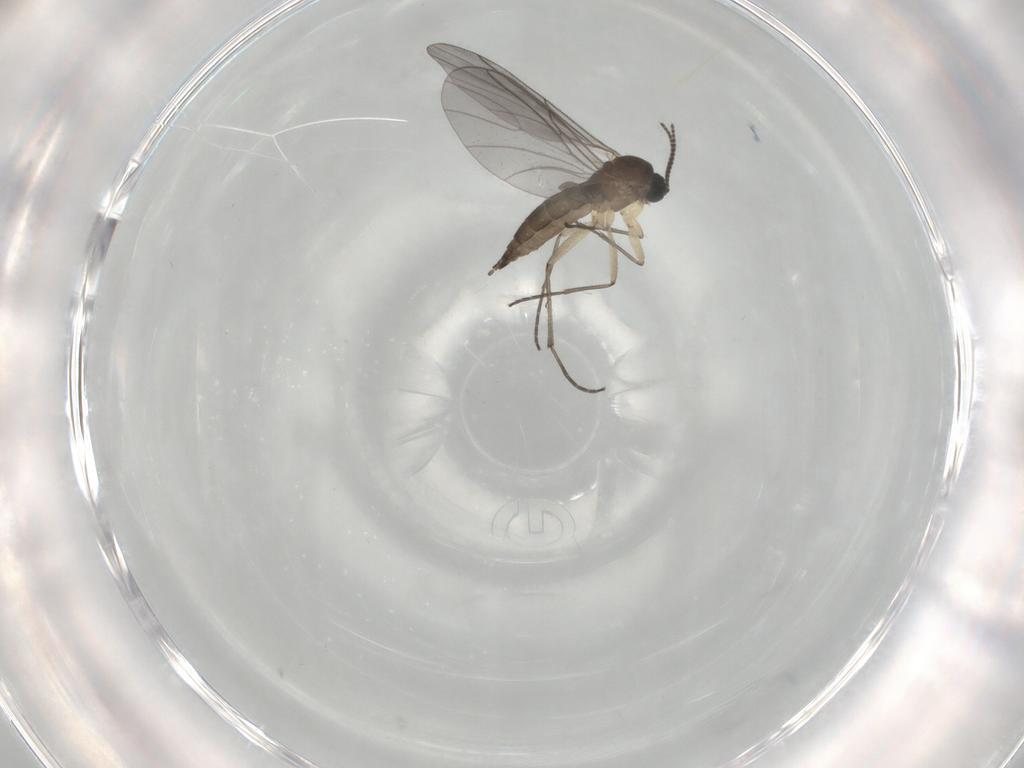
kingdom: Animalia
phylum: Arthropoda
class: Insecta
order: Diptera
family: Sciaridae
